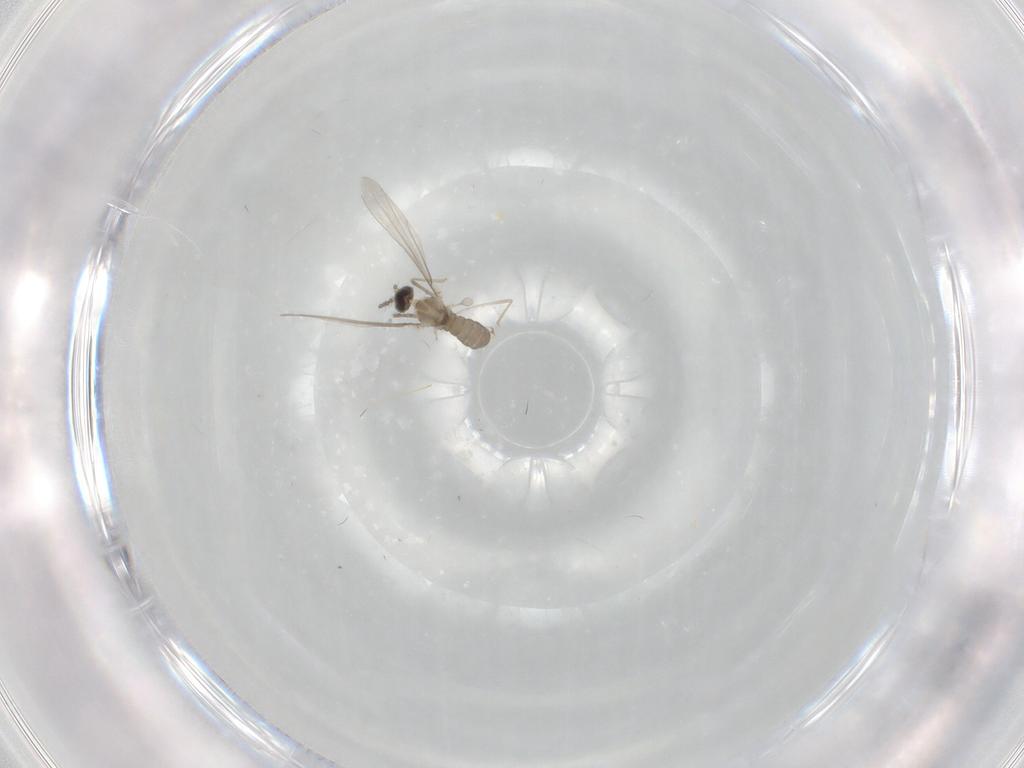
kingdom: Animalia
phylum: Arthropoda
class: Insecta
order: Diptera
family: Cecidomyiidae
